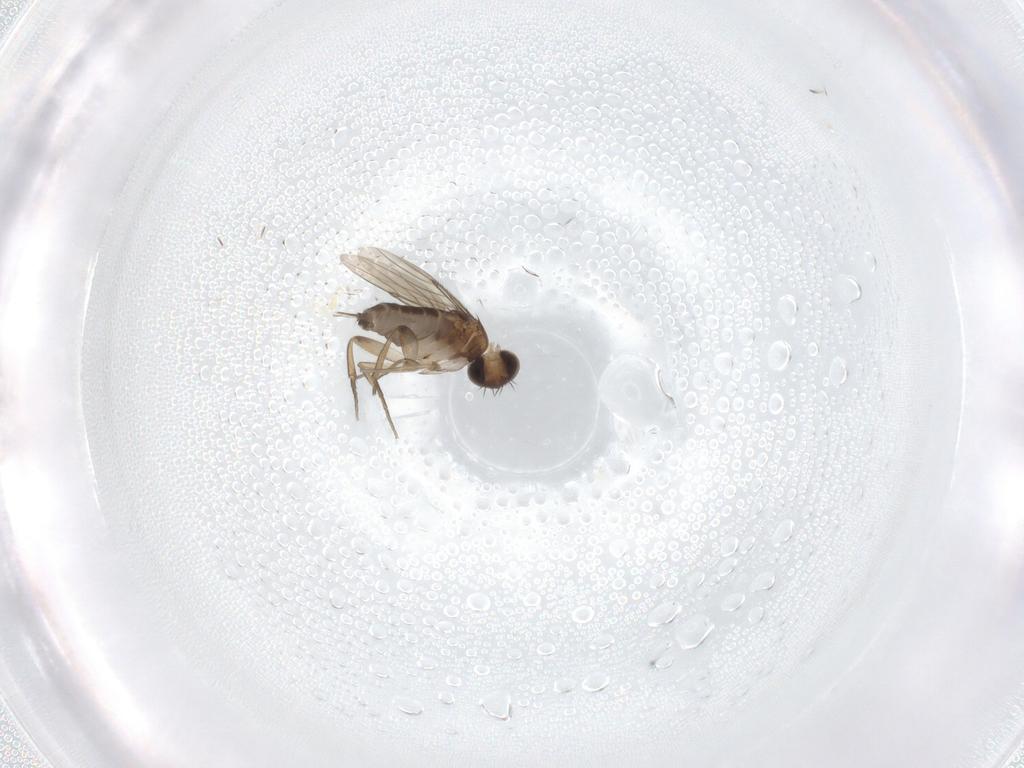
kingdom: Animalia
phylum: Arthropoda
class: Insecta
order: Diptera
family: Phoridae
